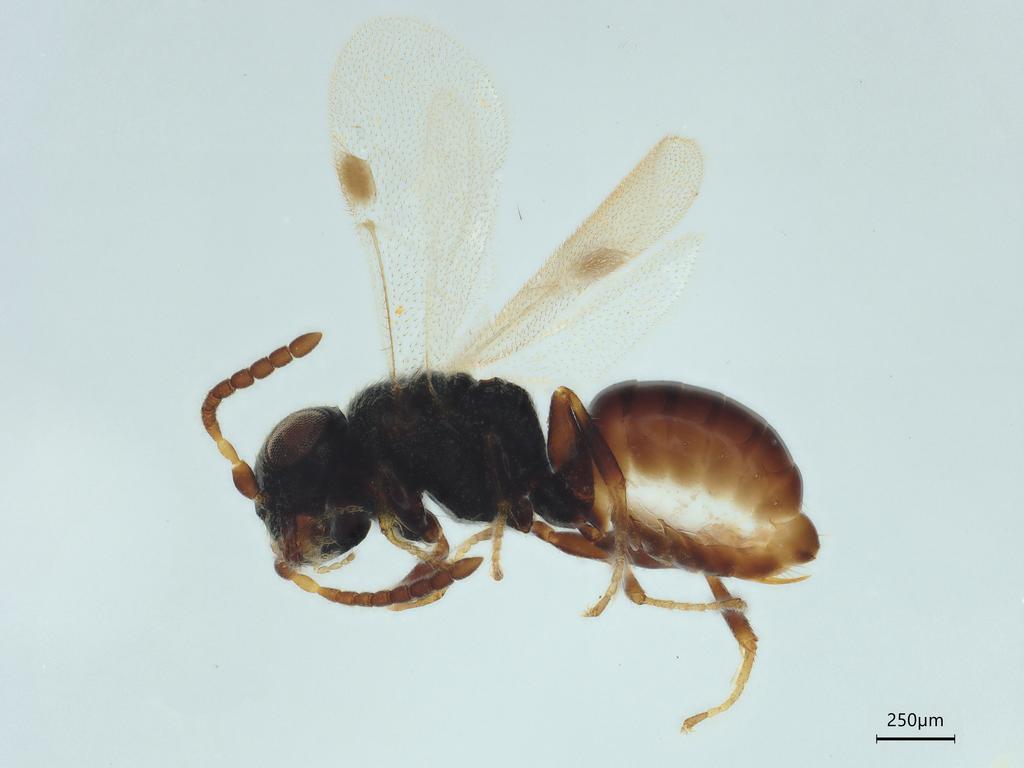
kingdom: Animalia
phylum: Arthropoda
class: Insecta
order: Hymenoptera
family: Dryinidae
